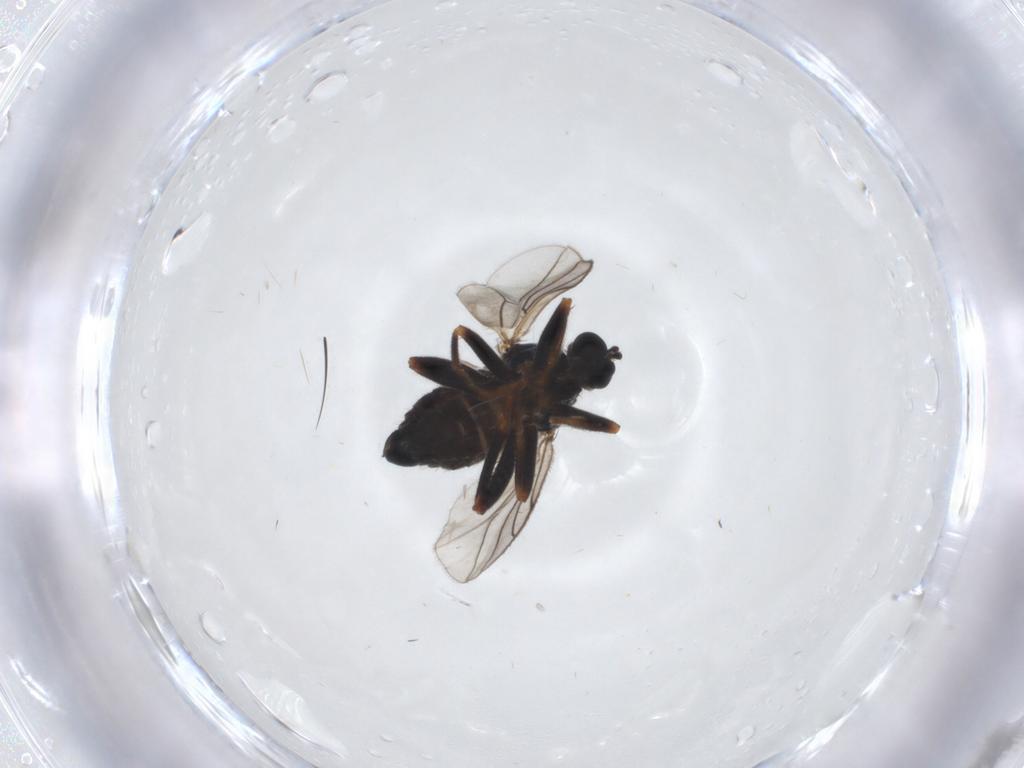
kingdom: Animalia
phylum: Arthropoda
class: Insecta
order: Diptera
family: Hybotidae
